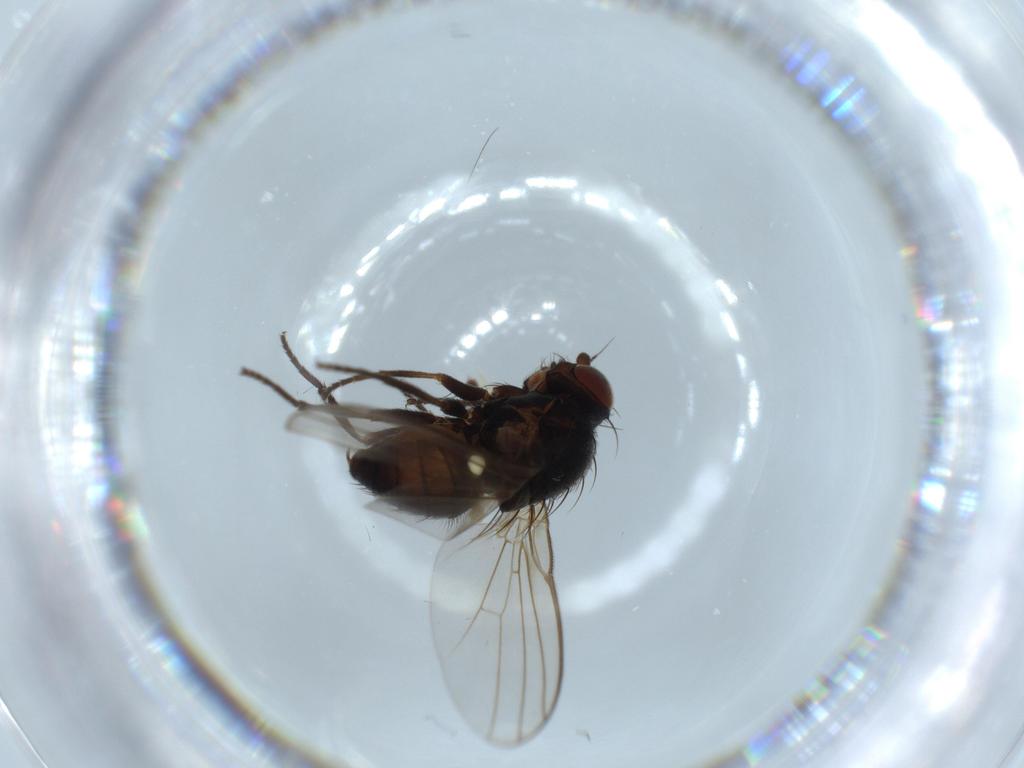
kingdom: Animalia
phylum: Arthropoda
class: Insecta
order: Diptera
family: Agromyzidae
